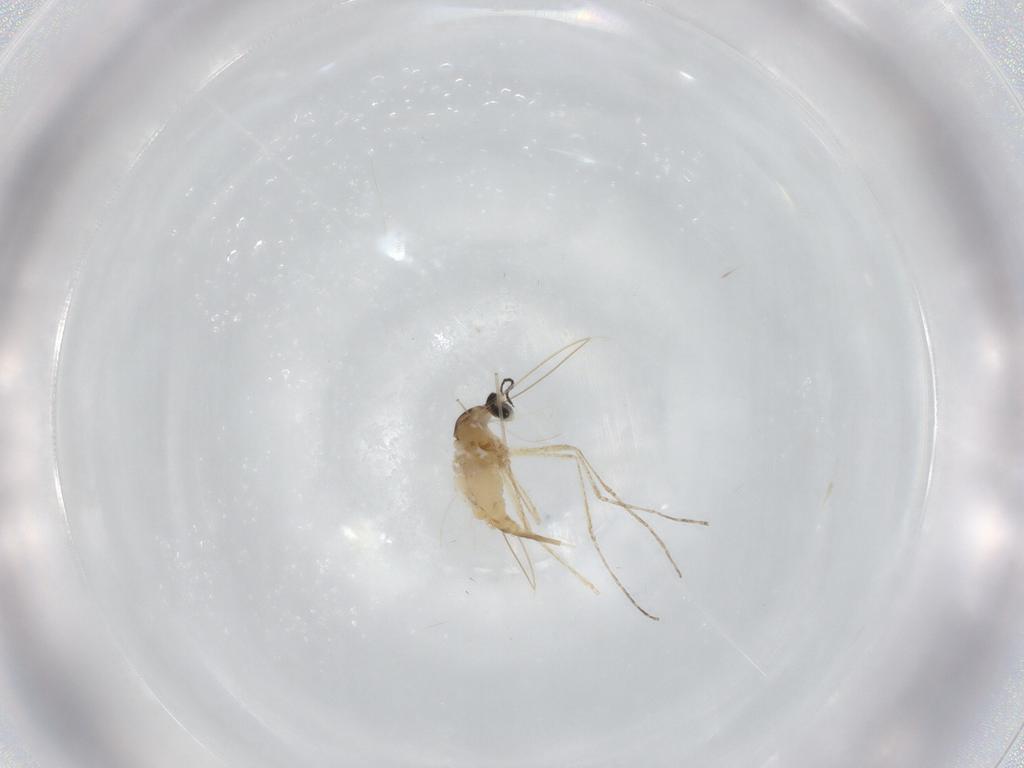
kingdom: Animalia
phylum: Arthropoda
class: Insecta
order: Diptera
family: Cecidomyiidae
